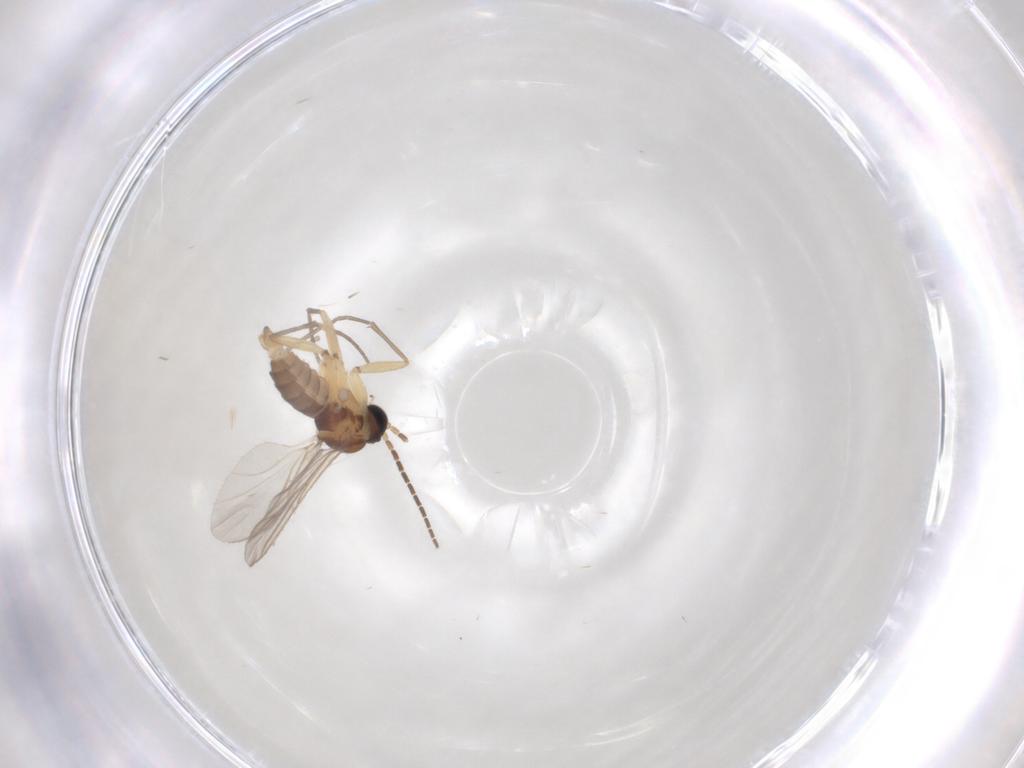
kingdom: Animalia
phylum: Arthropoda
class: Insecta
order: Diptera
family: Sciaridae
